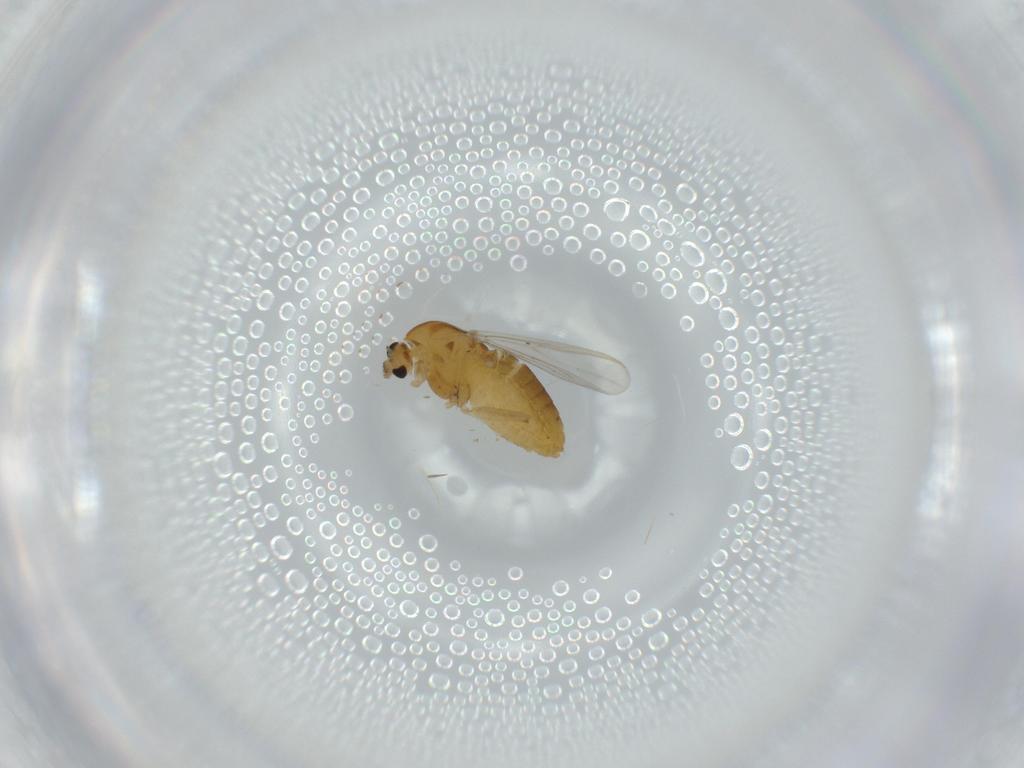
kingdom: Animalia
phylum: Arthropoda
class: Insecta
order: Diptera
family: Chironomidae
